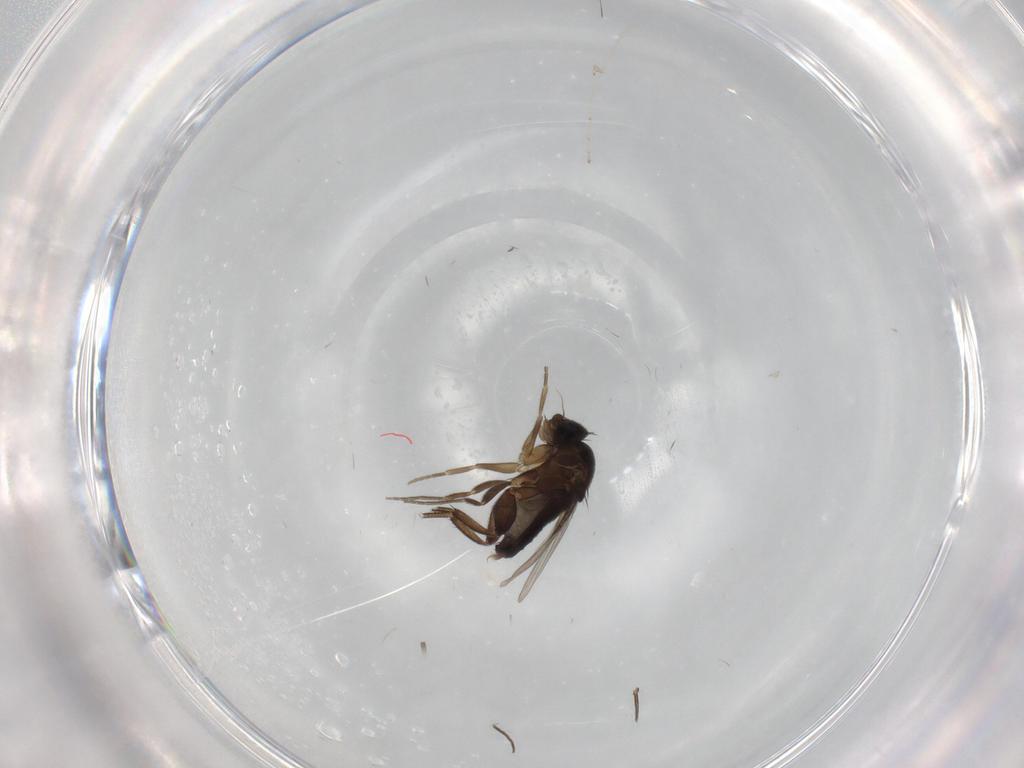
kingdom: Animalia
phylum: Arthropoda
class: Insecta
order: Diptera
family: Phoridae
